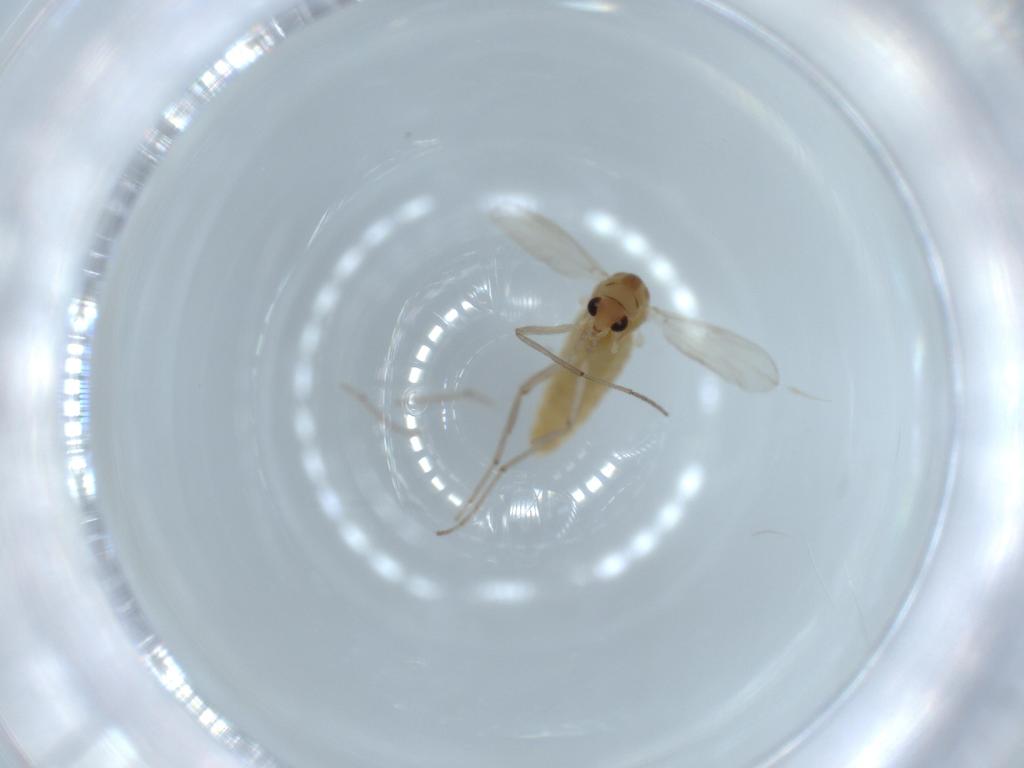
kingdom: Animalia
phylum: Arthropoda
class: Insecta
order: Diptera
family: Chironomidae
